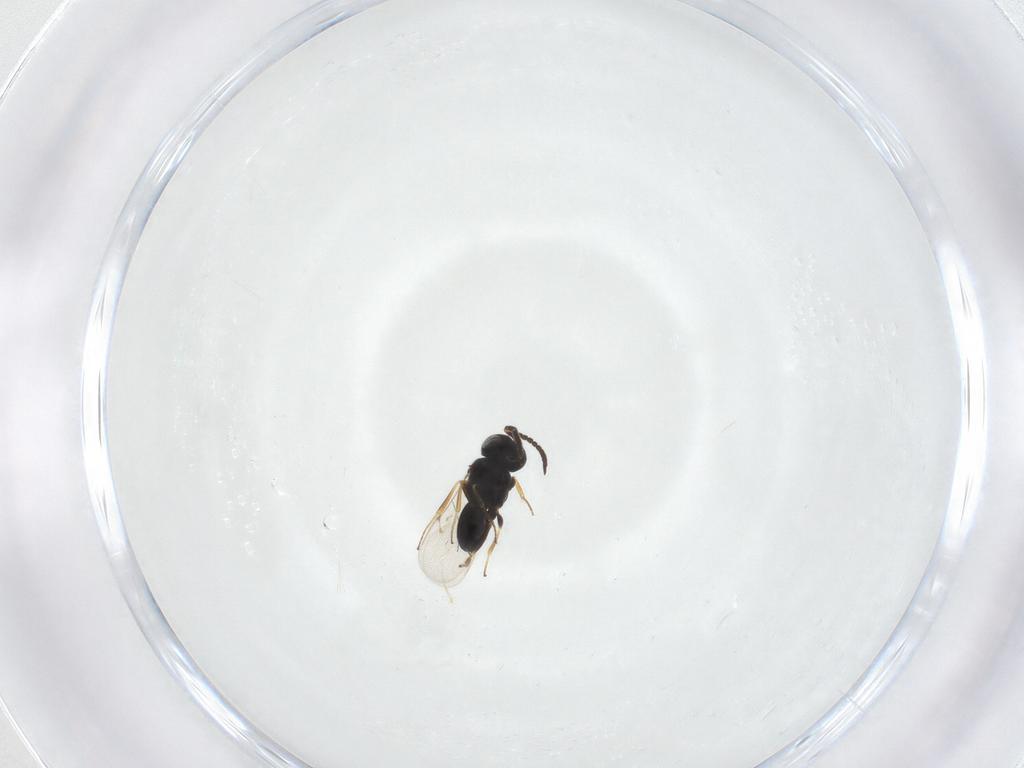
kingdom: Animalia
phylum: Arthropoda
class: Insecta
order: Hymenoptera
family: Scelionidae
